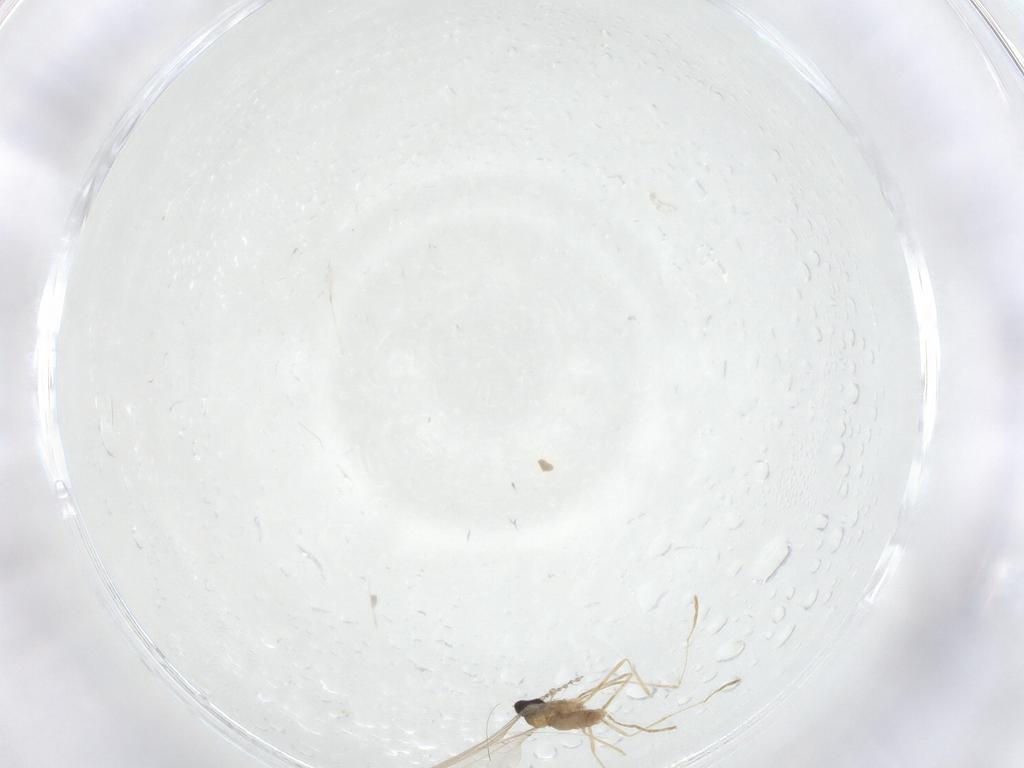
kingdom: Animalia
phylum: Arthropoda
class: Insecta
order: Diptera
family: Cecidomyiidae
